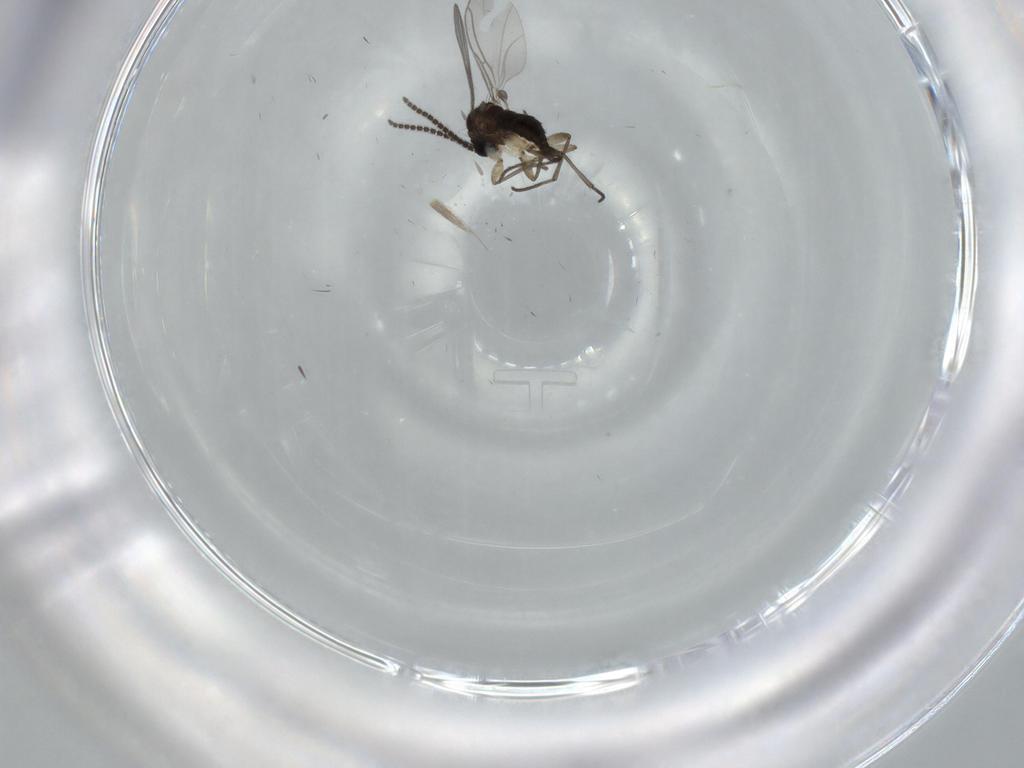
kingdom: Animalia
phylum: Arthropoda
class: Insecta
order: Diptera
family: Sciaridae
